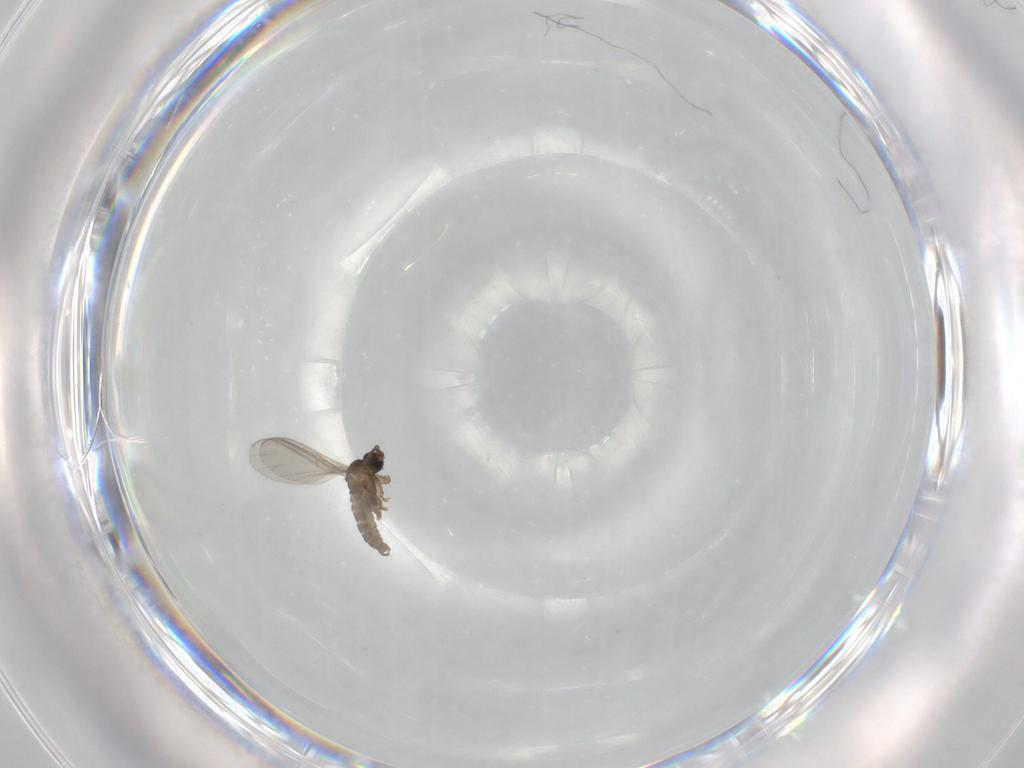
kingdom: Animalia
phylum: Arthropoda
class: Insecta
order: Diptera
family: Sciaridae
